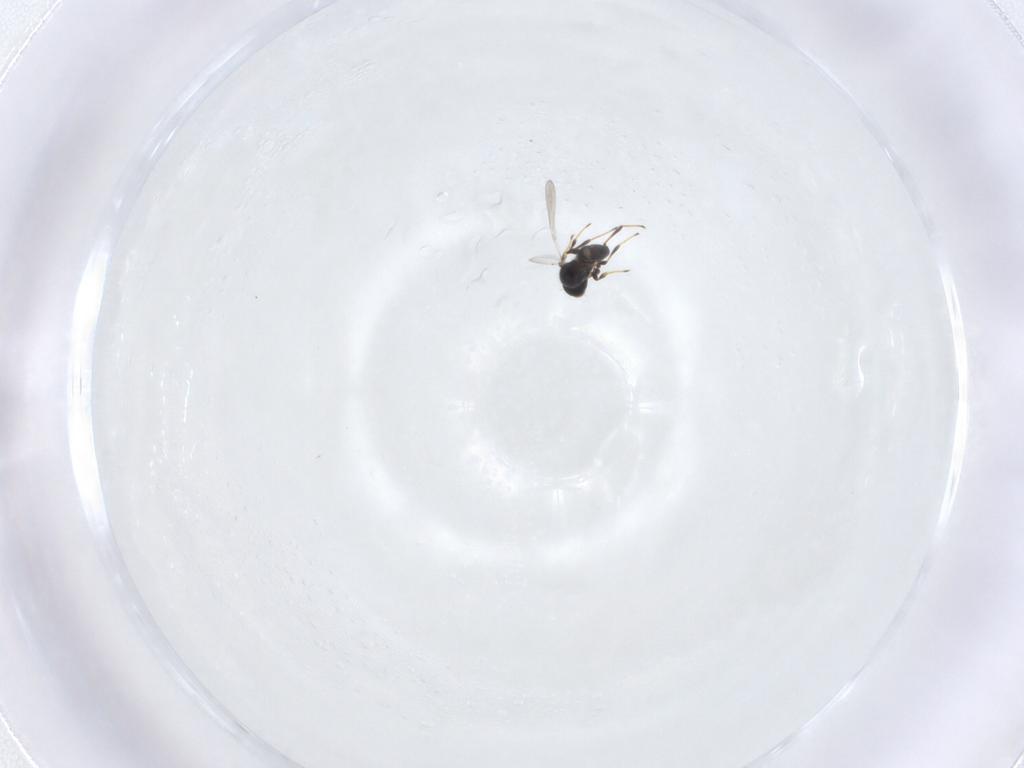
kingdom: Animalia
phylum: Arthropoda
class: Insecta
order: Hymenoptera
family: Platygastridae
